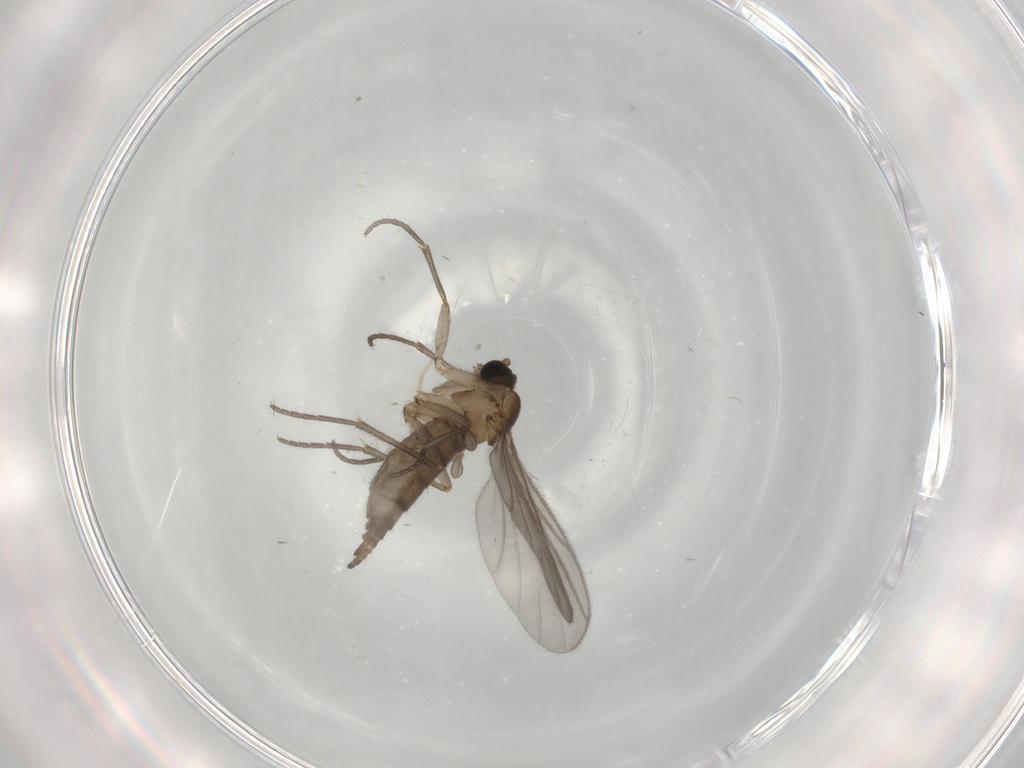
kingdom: Animalia
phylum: Arthropoda
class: Insecta
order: Diptera
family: Sciaridae
